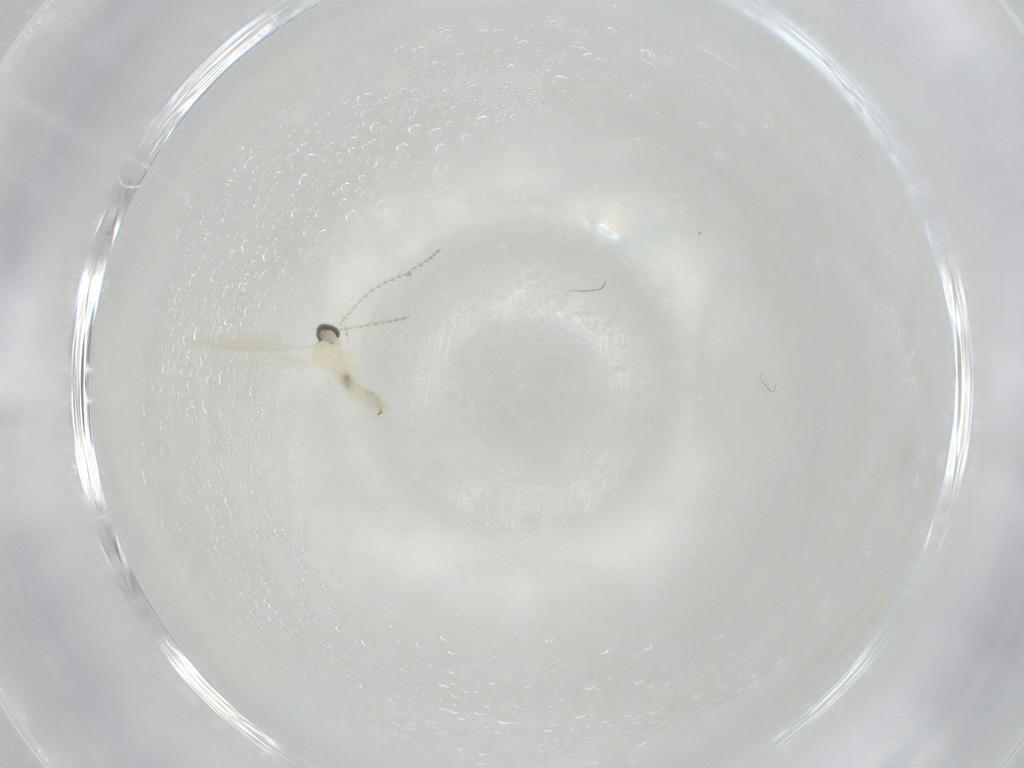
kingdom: Animalia
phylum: Arthropoda
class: Insecta
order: Diptera
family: Cecidomyiidae
